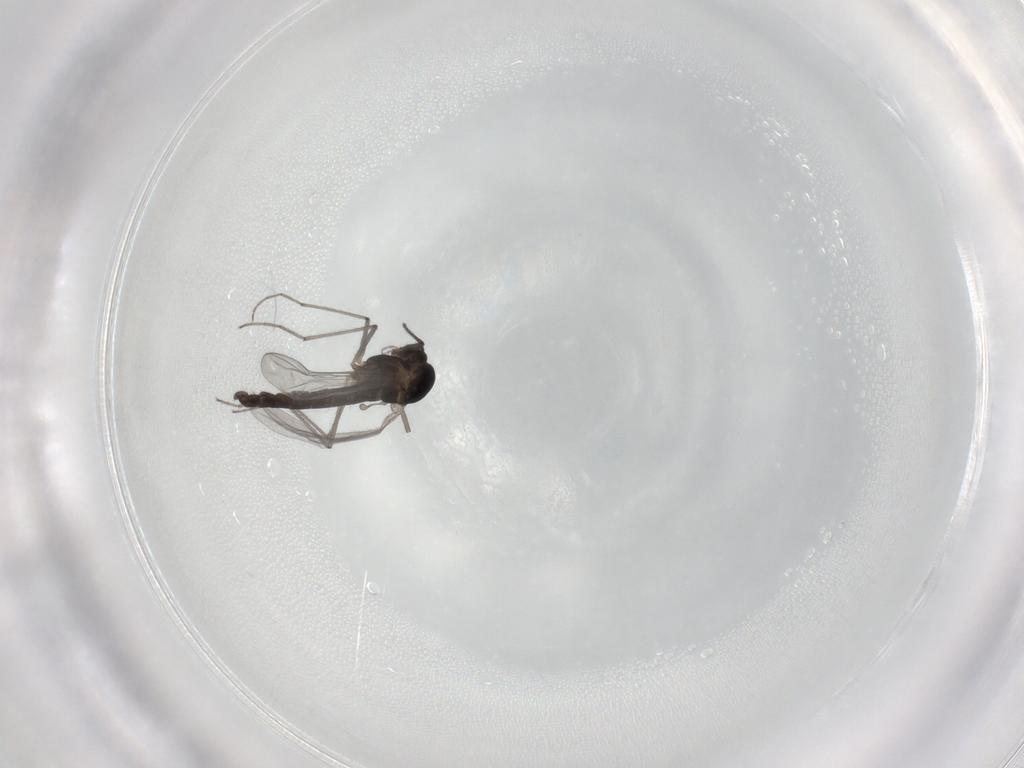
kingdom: Animalia
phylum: Arthropoda
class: Insecta
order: Diptera
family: Chironomidae
